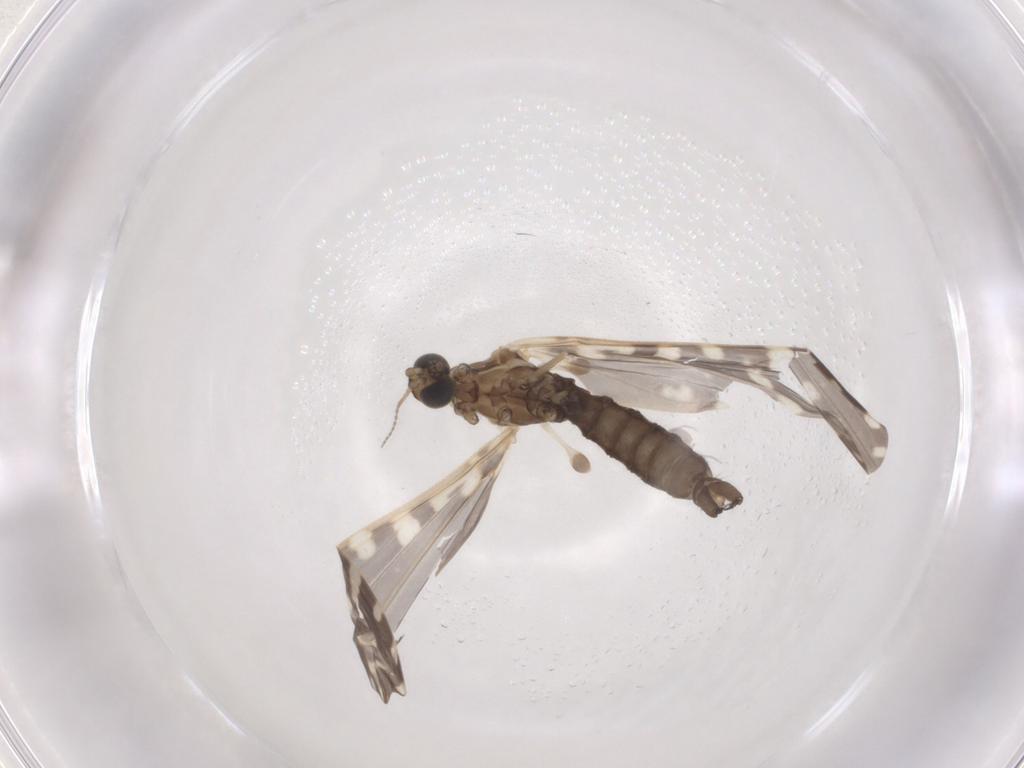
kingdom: Animalia
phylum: Arthropoda
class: Insecta
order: Diptera
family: Limoniidae
